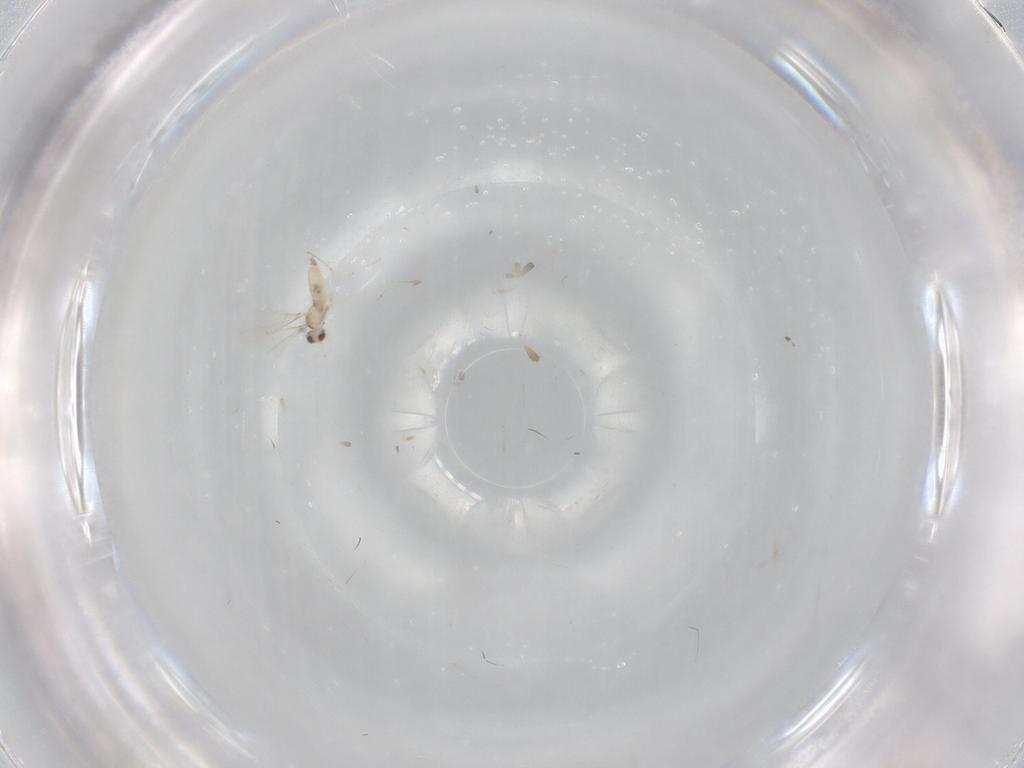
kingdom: Animalia
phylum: Arthropoda
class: Insecta
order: Diptera
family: Cecidomyiidae
